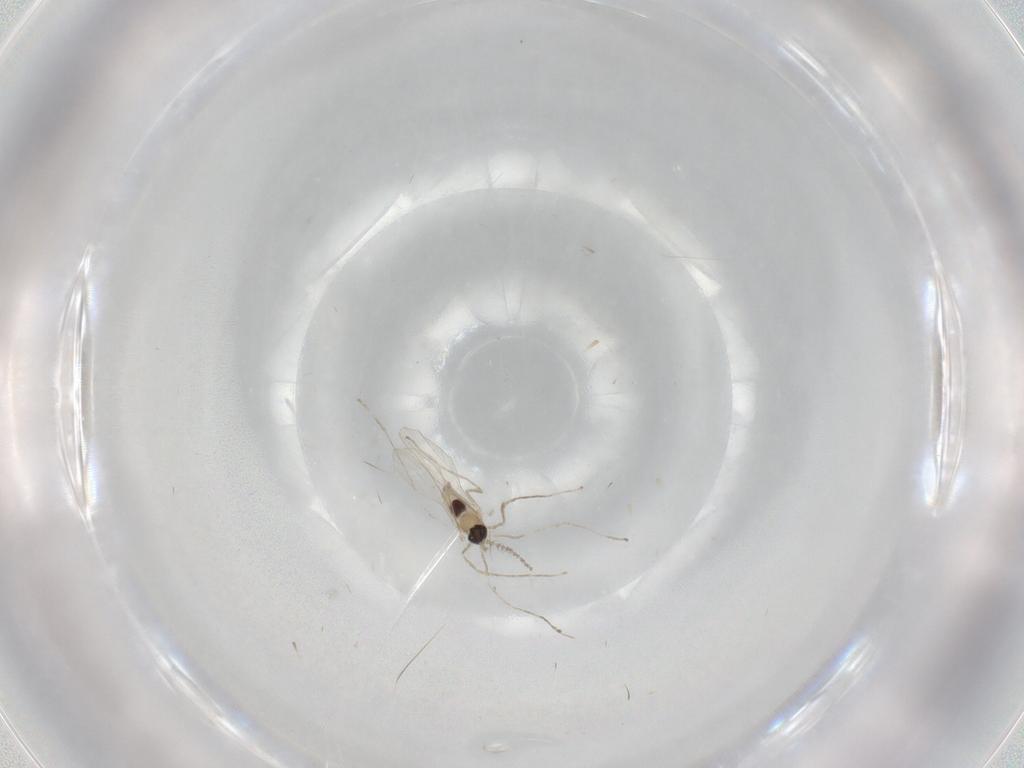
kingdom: Animalia
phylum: Arthropoda
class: Insecta
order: Diptera
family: Cecidomyiidae
